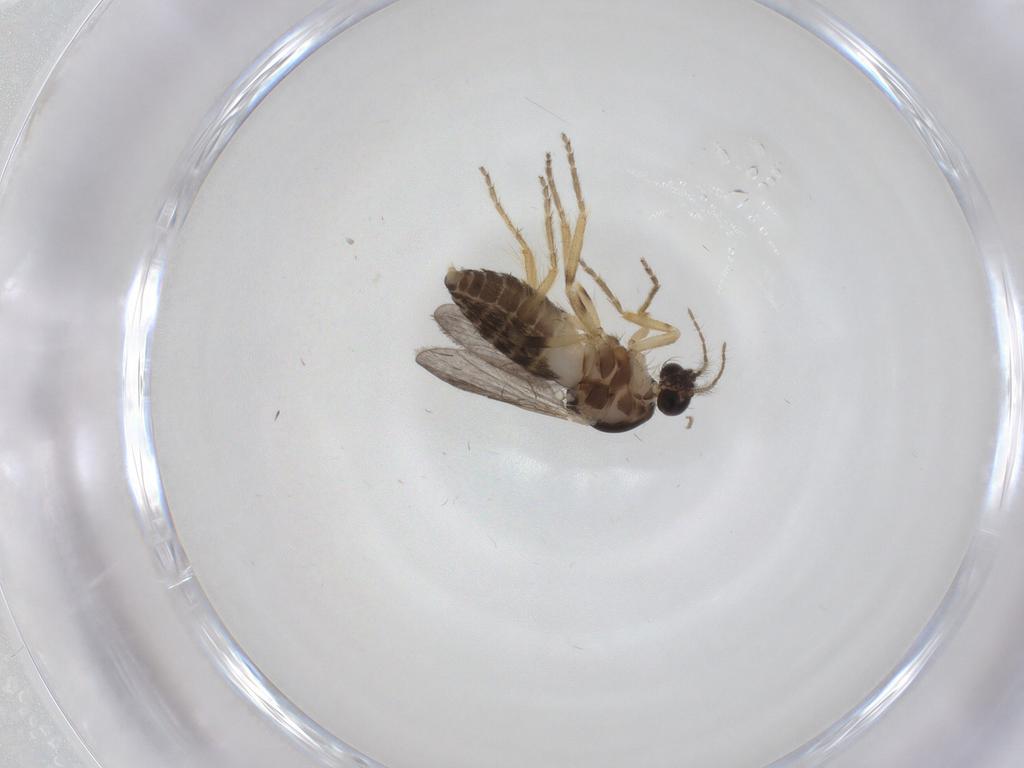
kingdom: Animalia
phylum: Arthropoda
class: Insecta
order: Diptera
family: Ceratopogonidae
